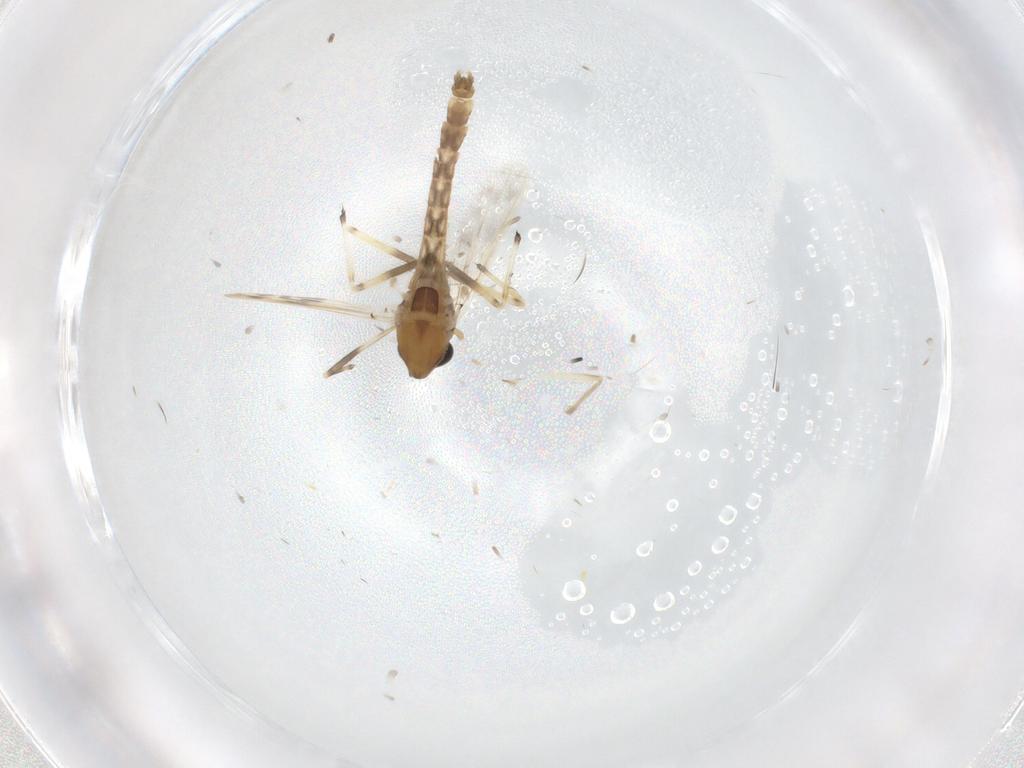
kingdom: Animalia
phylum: Arthropoda
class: Insecta
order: Diptera
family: Chironomidae
